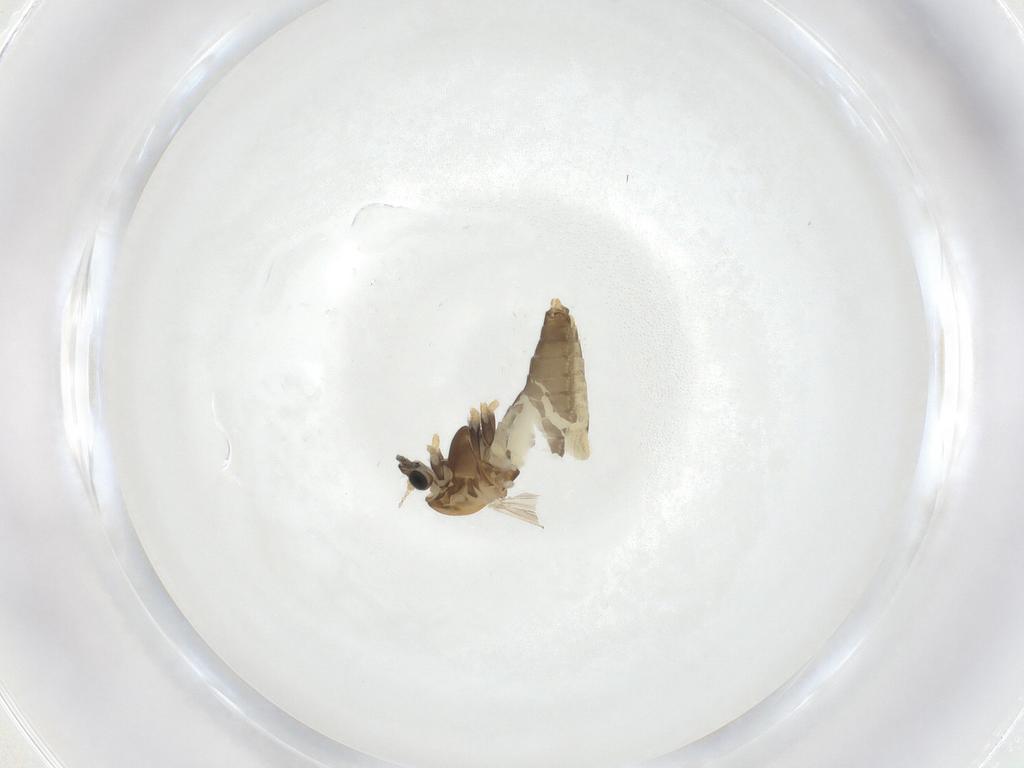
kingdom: Animalia
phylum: Arthropoda
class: Insecta
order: Diptera
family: Chironomidae
